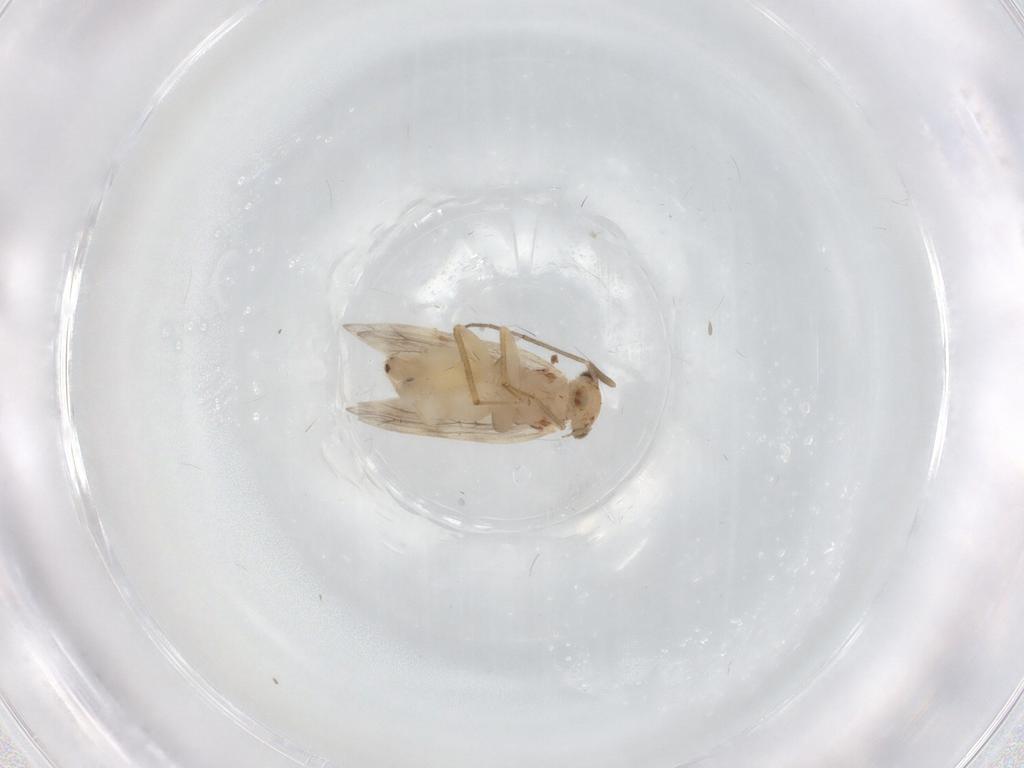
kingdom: Animalia
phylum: Arthropoda
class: Insecta
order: Psocodea
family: Lepidopsocidae
